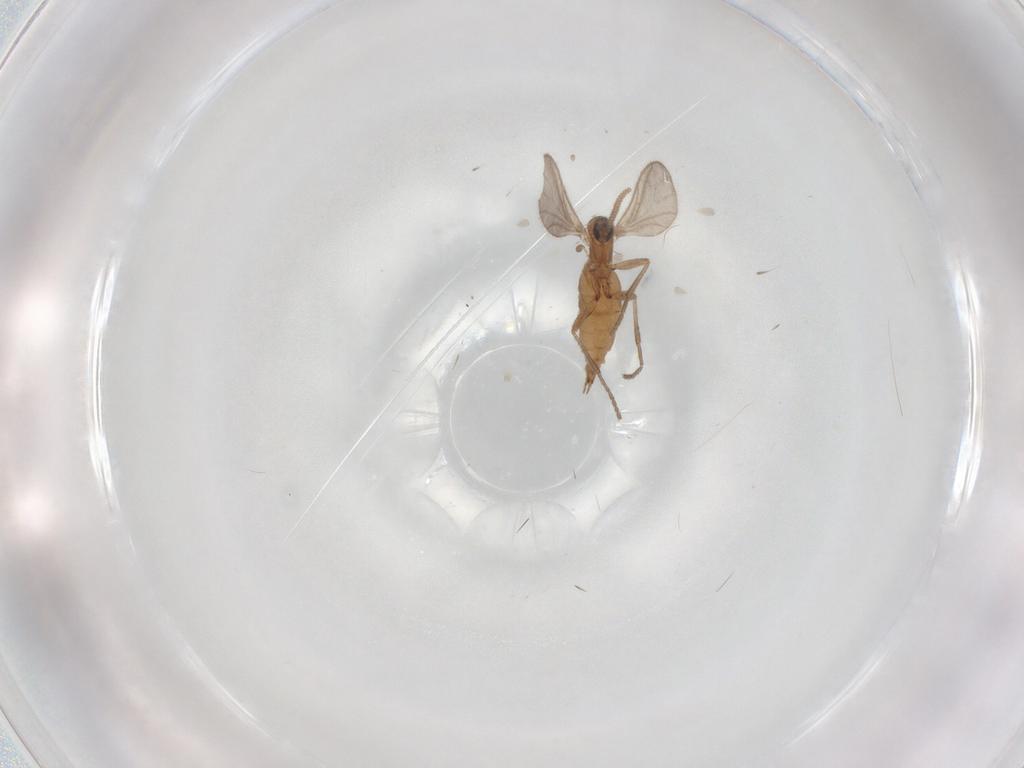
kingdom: Animalia
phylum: Arthropoda
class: Insecta
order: Diptera
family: Sciaridae
